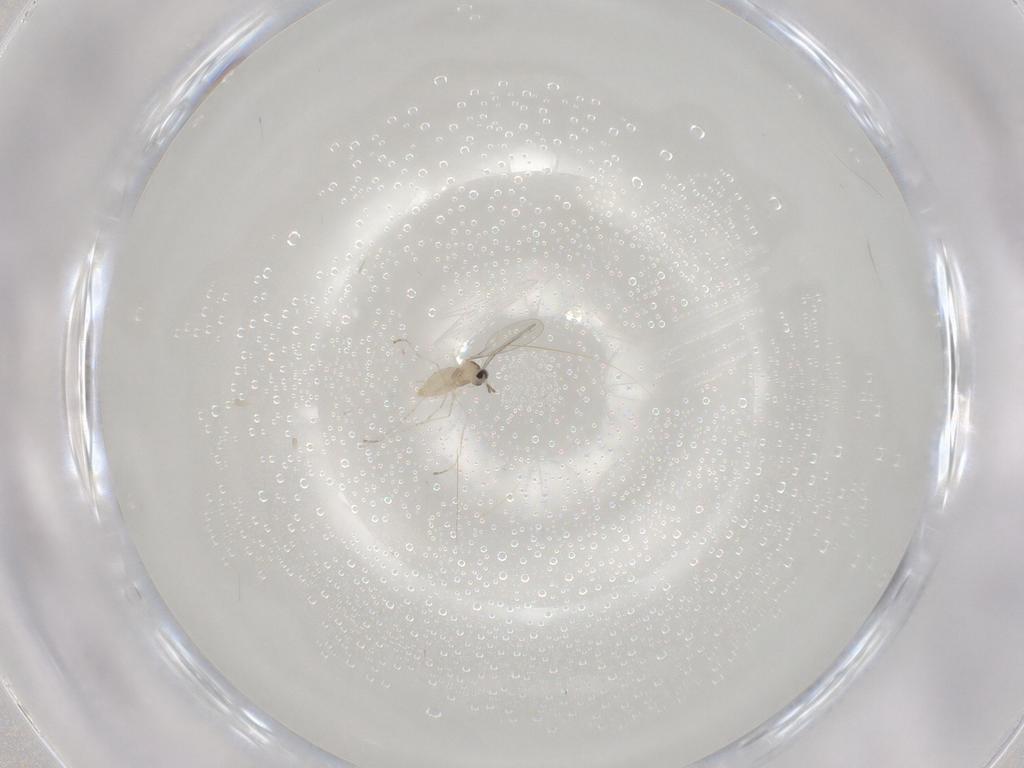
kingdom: Animalia
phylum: Arthropoda
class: Insecta
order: Diptera
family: Cecidomyiidae
